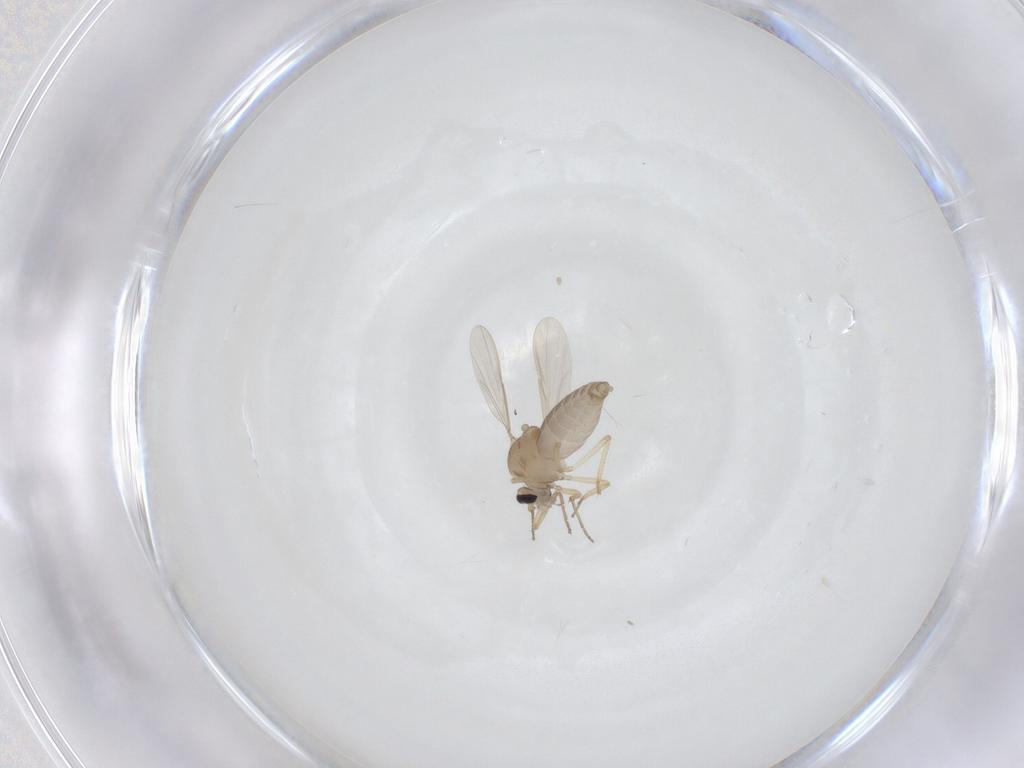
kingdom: Animalia
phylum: Arthropoda
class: Insecta
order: Diptera
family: Ceratopogonidae
